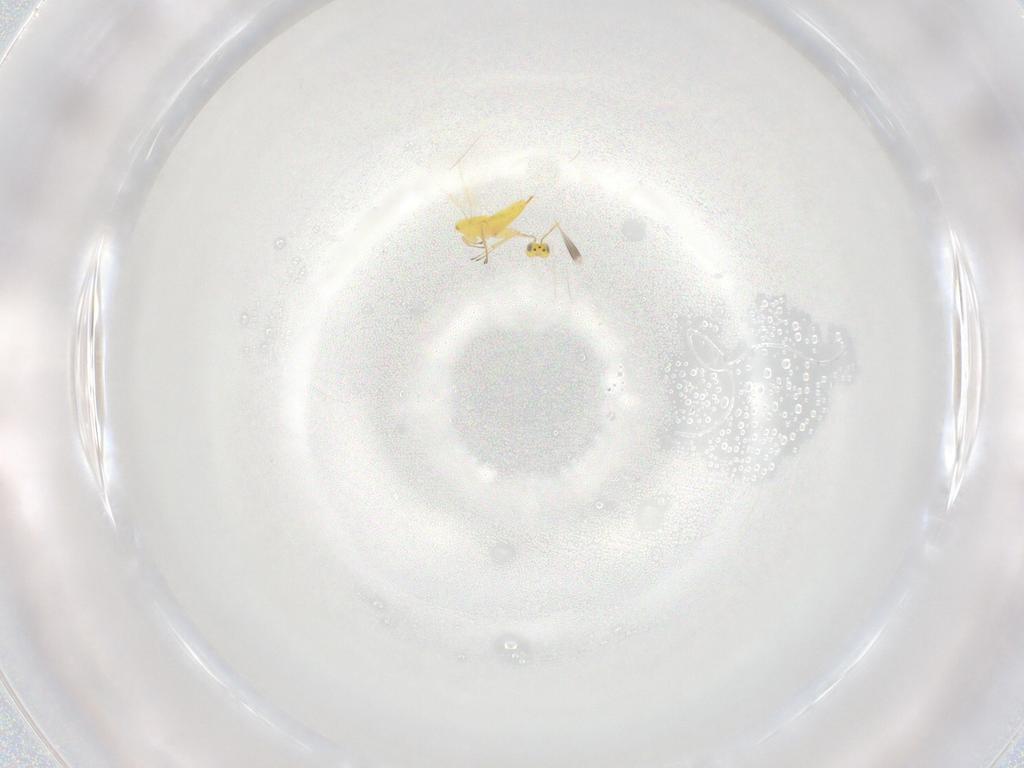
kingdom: Animalia
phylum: Arthropoda
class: Insecta
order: Hymenoptera
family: Aphelinidae
